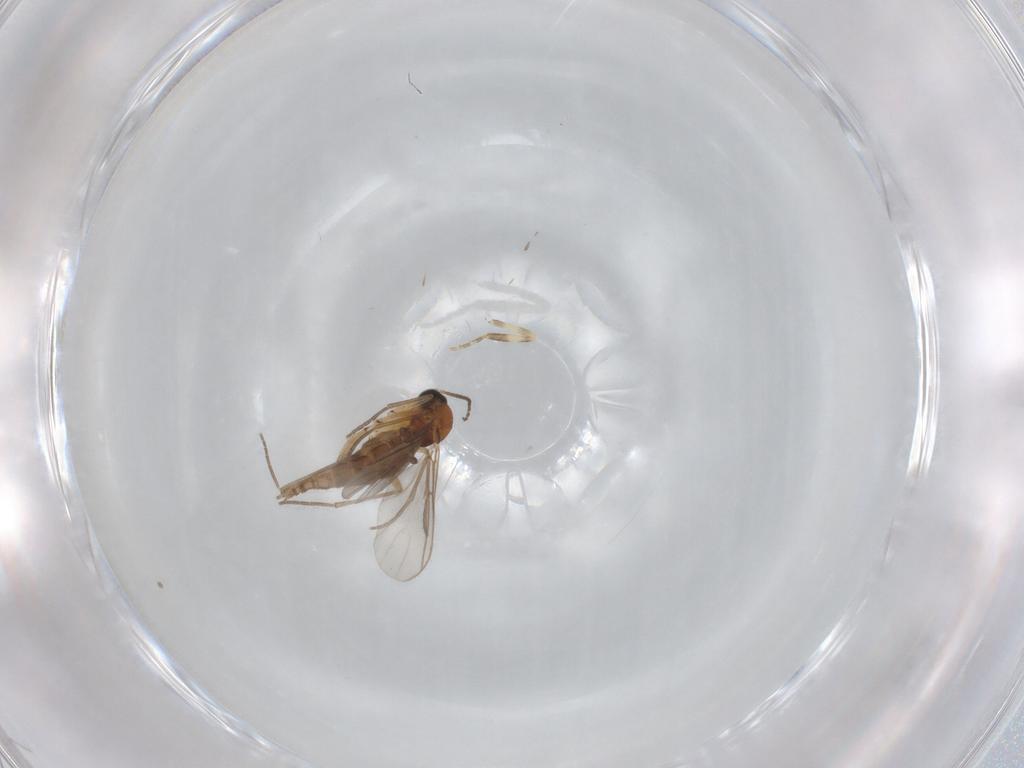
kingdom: Animalia
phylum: Arthropoda
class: Insecta
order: Diptera
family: Sciaridae
